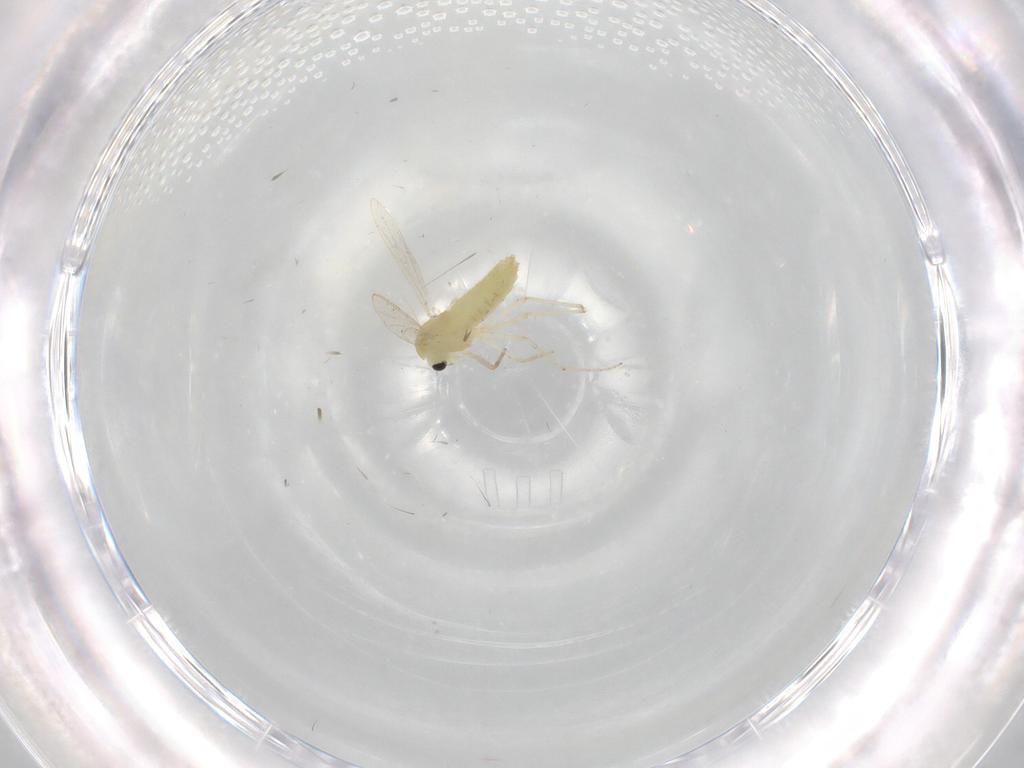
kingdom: Animalia
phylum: Arthropoda
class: Insecta
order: Diptera
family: Chironomidae
